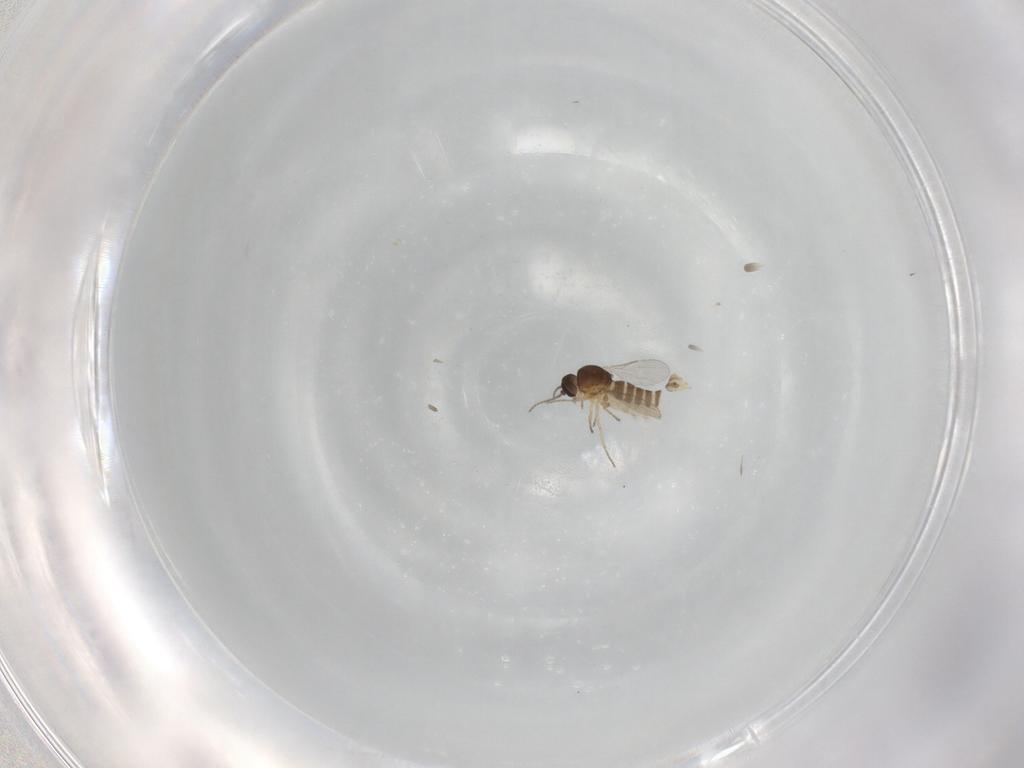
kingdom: Animalia
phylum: Arthropoda
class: Insecta
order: Diptera
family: Ceratopogonidae
